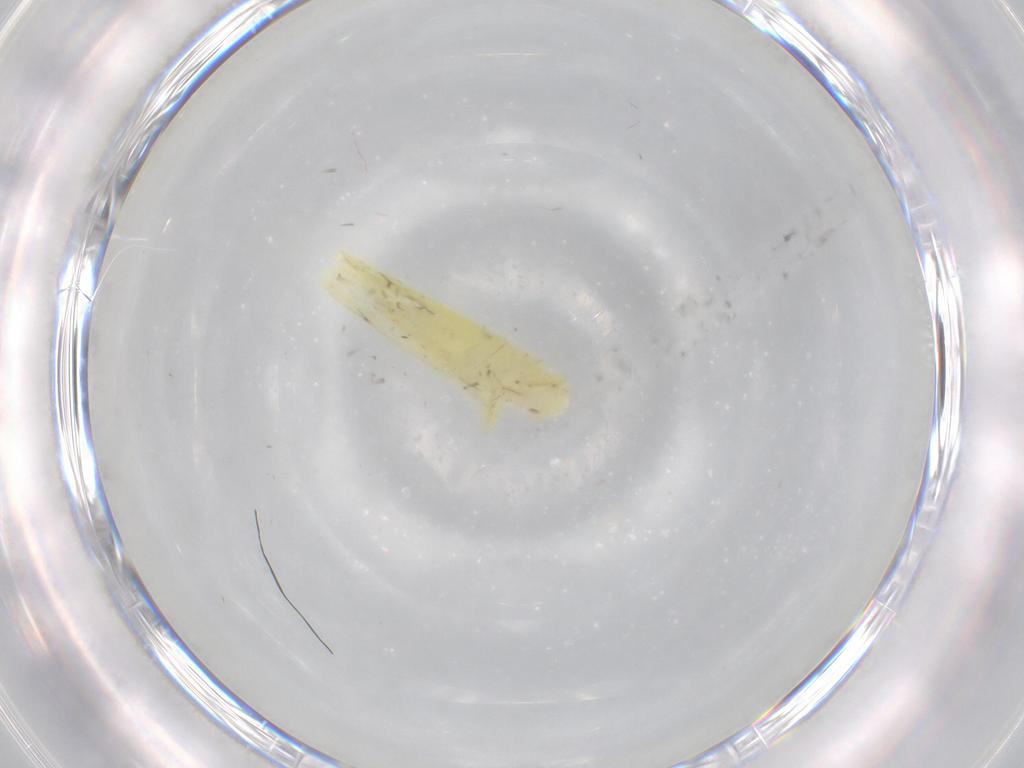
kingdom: Animalia
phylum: Arthropoda
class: Insecta
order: Hemiptera
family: Cicadellidae
